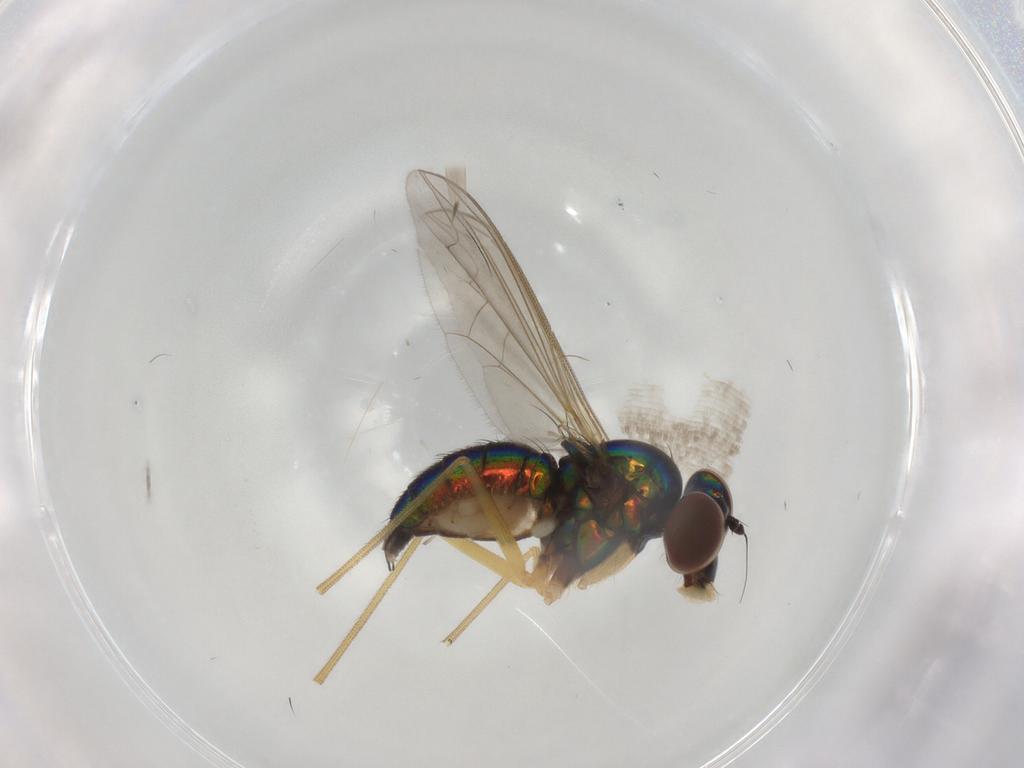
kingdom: Animalia
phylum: Arthropoda
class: Insecta
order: Diptera
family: Dolichopodidae
